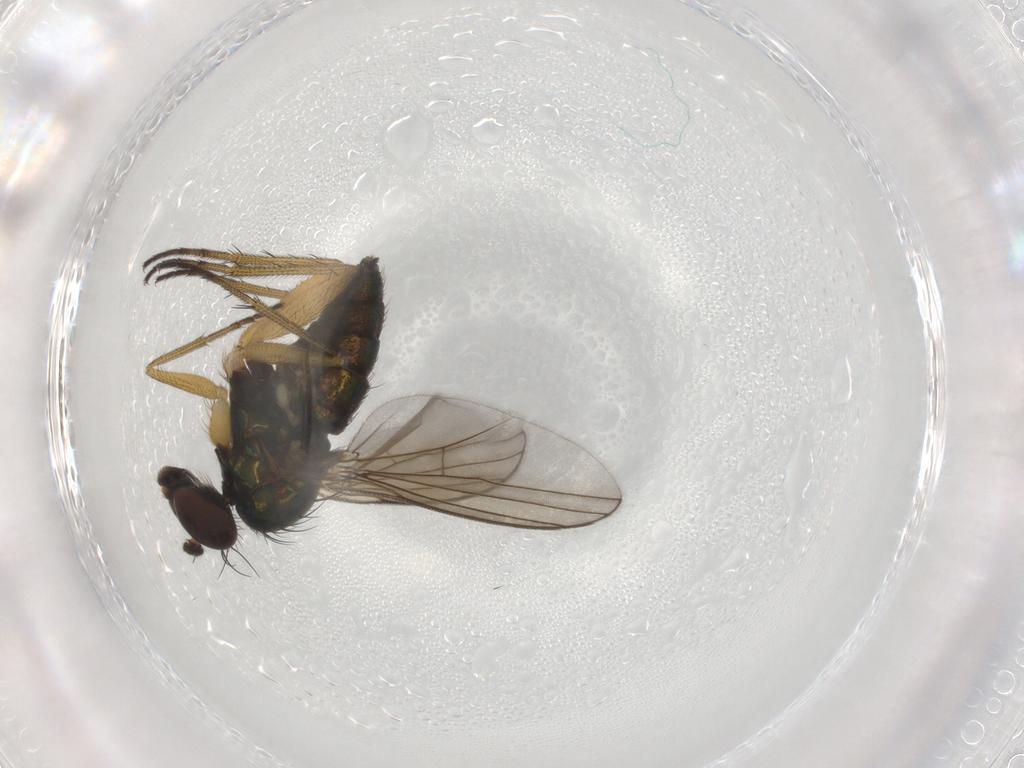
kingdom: Animalia
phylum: Arthropoda
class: Insecta
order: Diptera
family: Dolichopodidae
